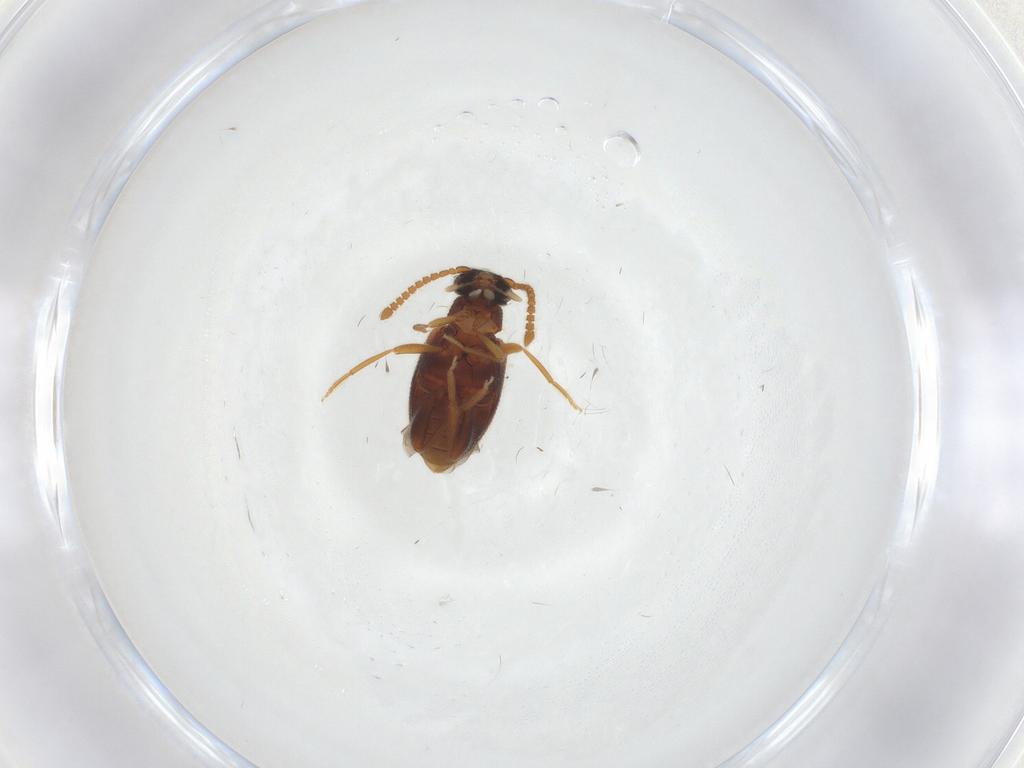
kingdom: Animalia
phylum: Arthropoda
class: Insecta
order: Coleoptera
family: Aderidae
